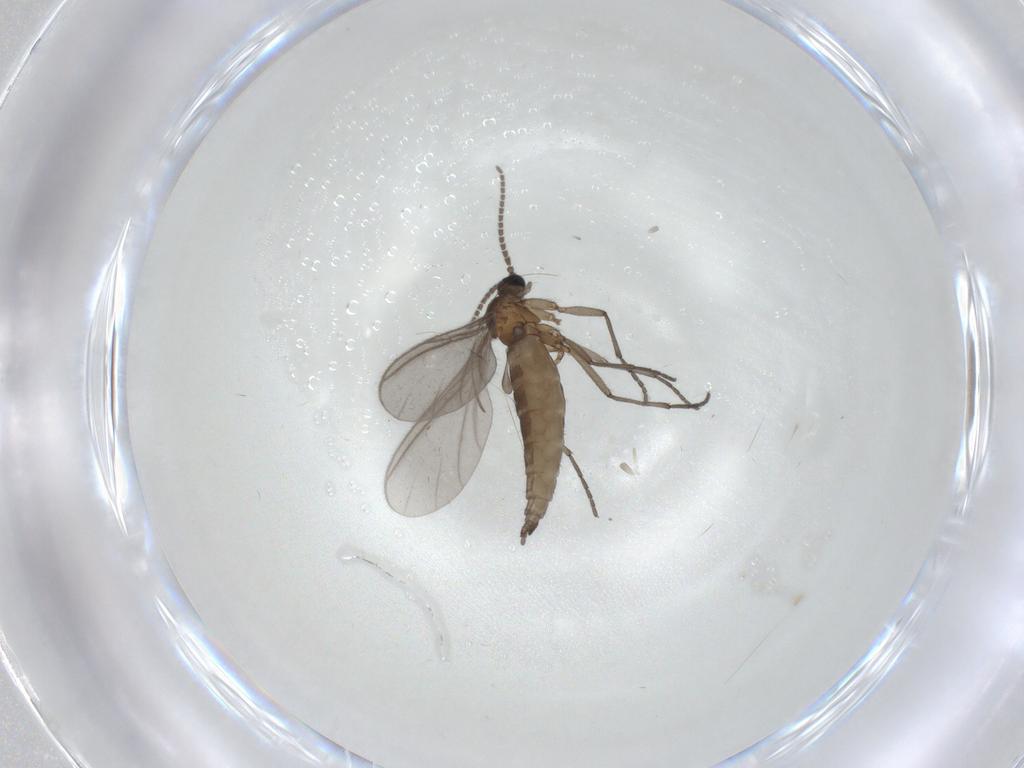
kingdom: Animalia
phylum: Arthropoda
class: Insecta
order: Diptera
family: Sciaridae
